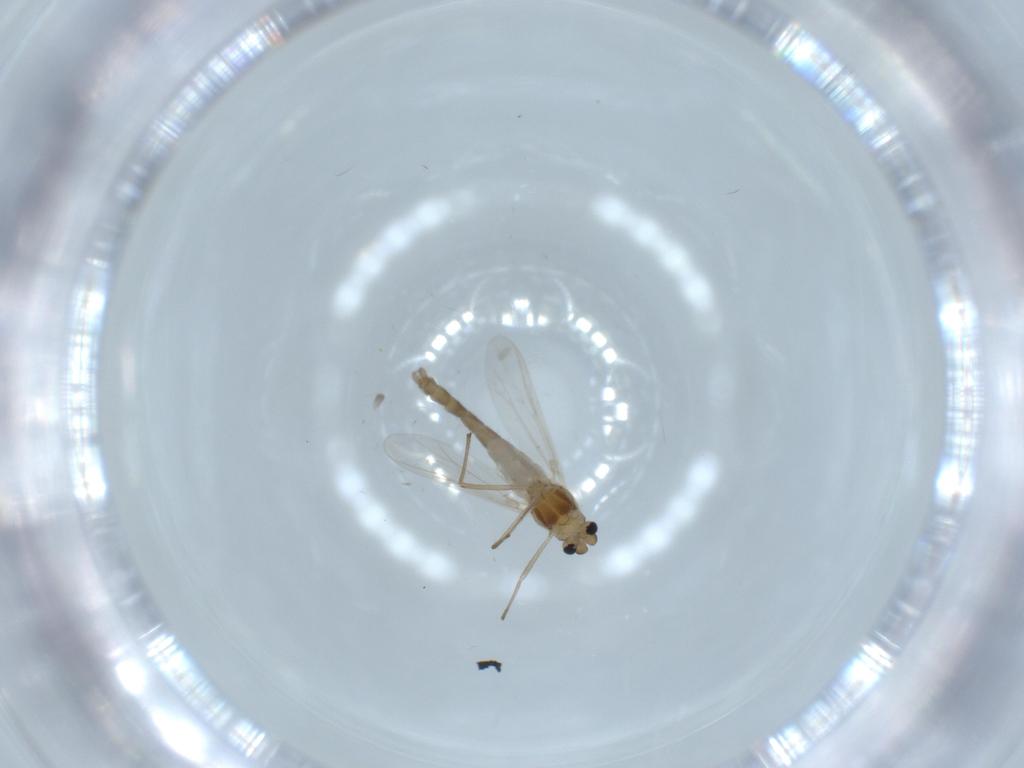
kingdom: Animalia
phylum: Arthropoda
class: Insecta
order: Diptera
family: Chironomidae
